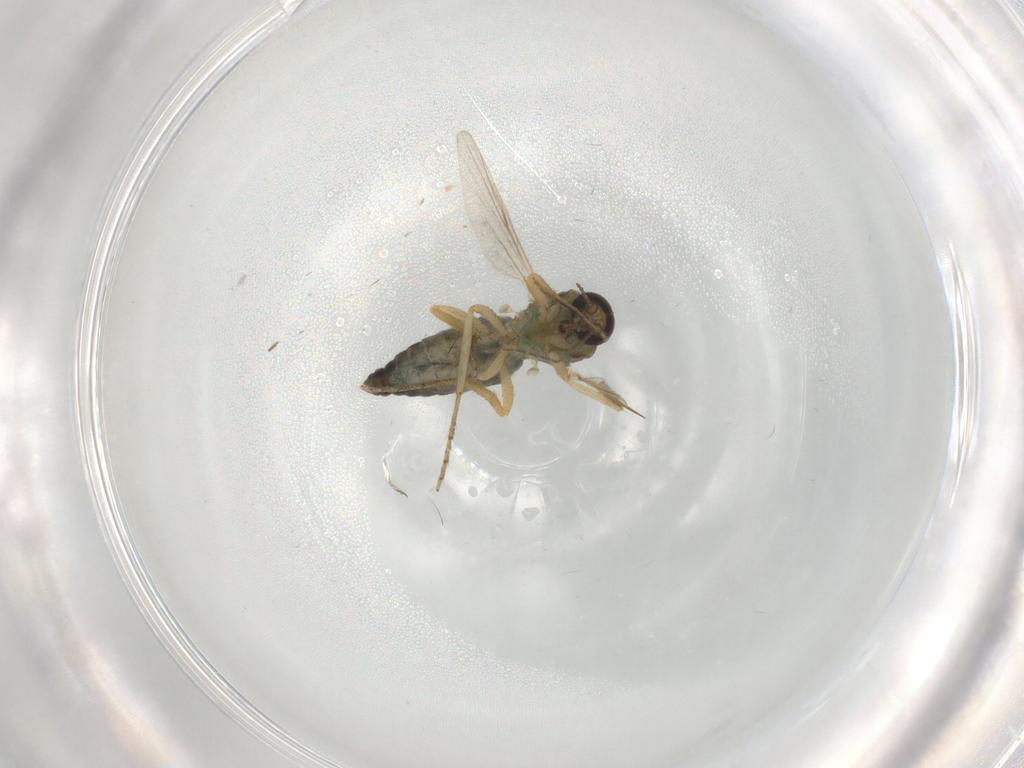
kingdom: Animalia
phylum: Arthropoda
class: Insecta
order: Diptera
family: Ceratopogonidae
